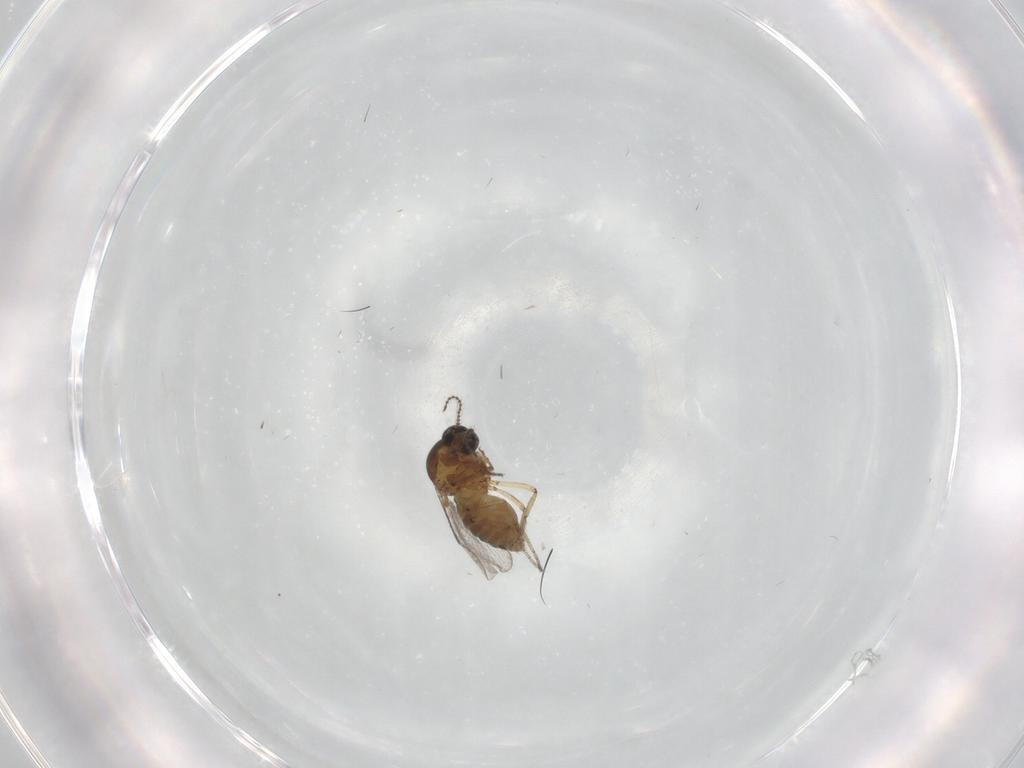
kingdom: Animalia
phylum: Arthropoda
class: Insecta
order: Diptera
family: Ceratopogonidae
